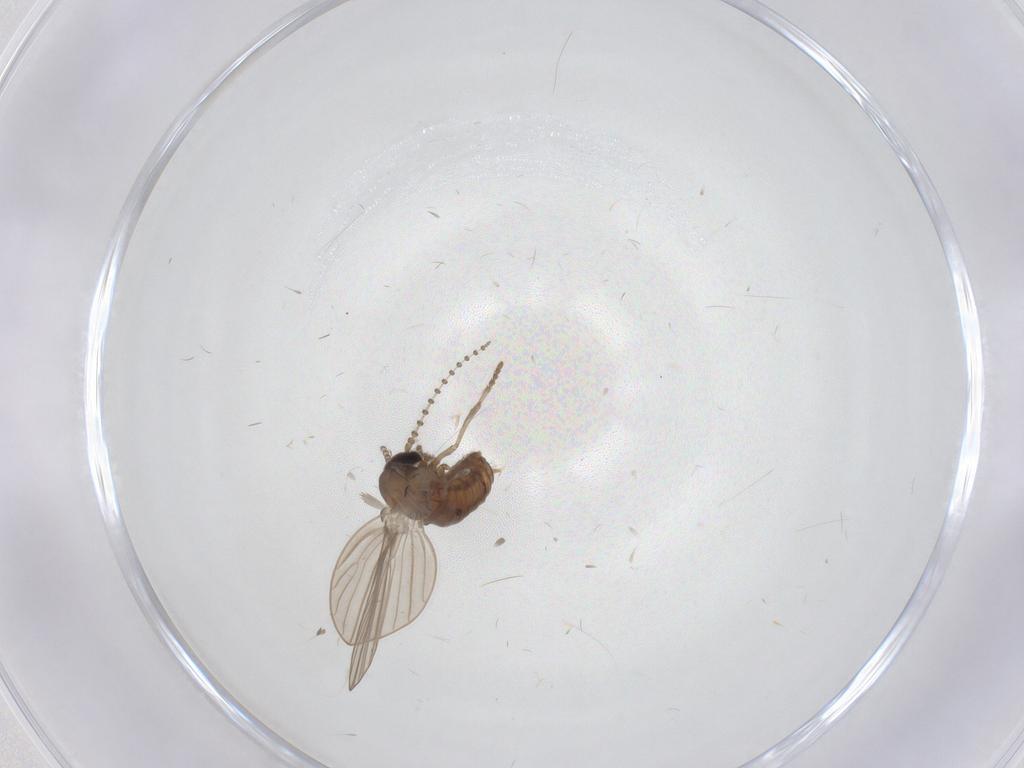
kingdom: Animalia
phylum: Arthropoda
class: Insecta
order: Diptera
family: Psychodidae
